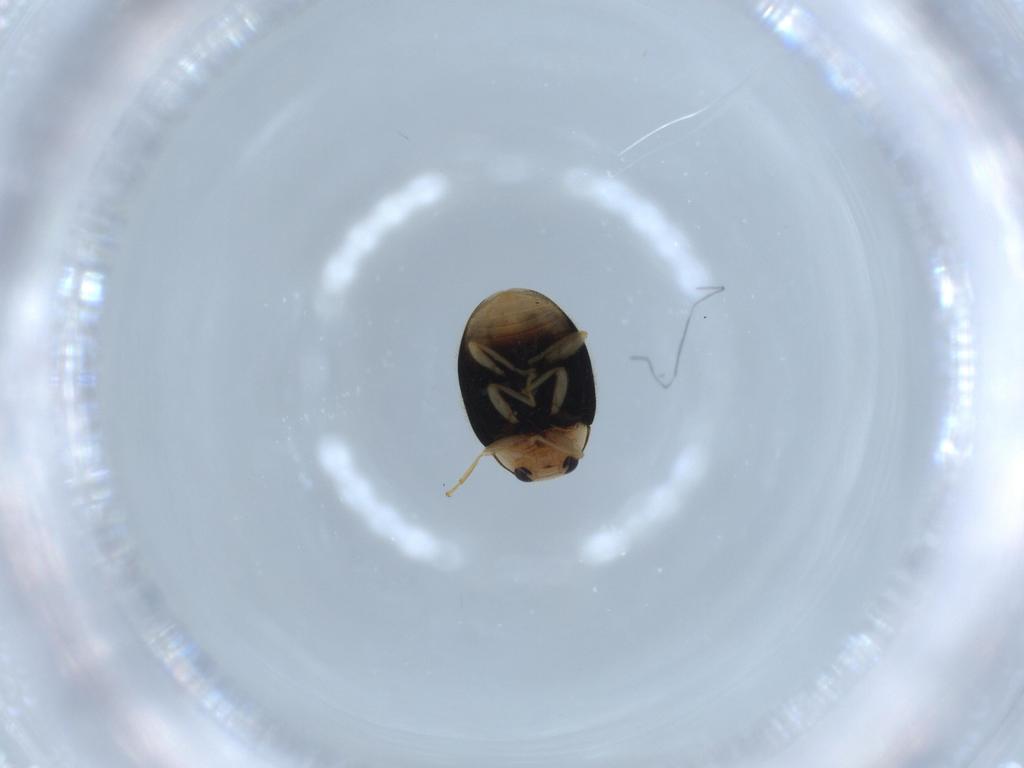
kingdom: Animalia
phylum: Arthropoda
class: Insecta
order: Coleoptera
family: Coccinellidae
